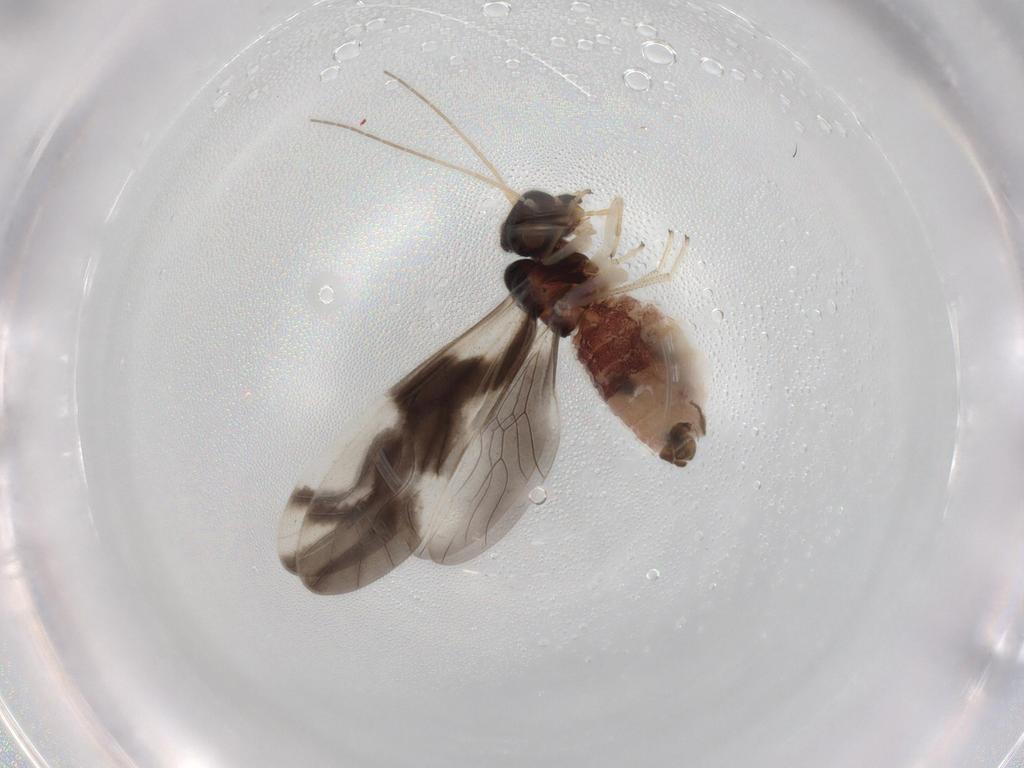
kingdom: Animalia
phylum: Arthropoda
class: Insecta
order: Psocodea
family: Caeciliusidae
